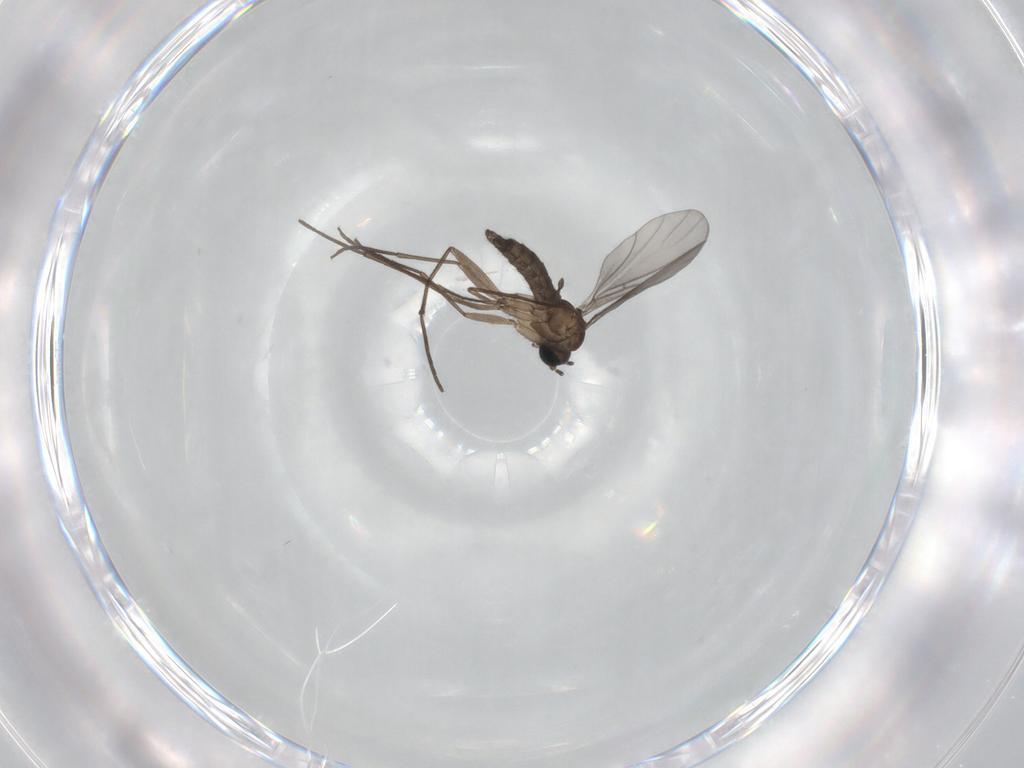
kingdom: Animalia
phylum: Arthropoda
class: Insecta
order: Diptera
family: Sciaridae
